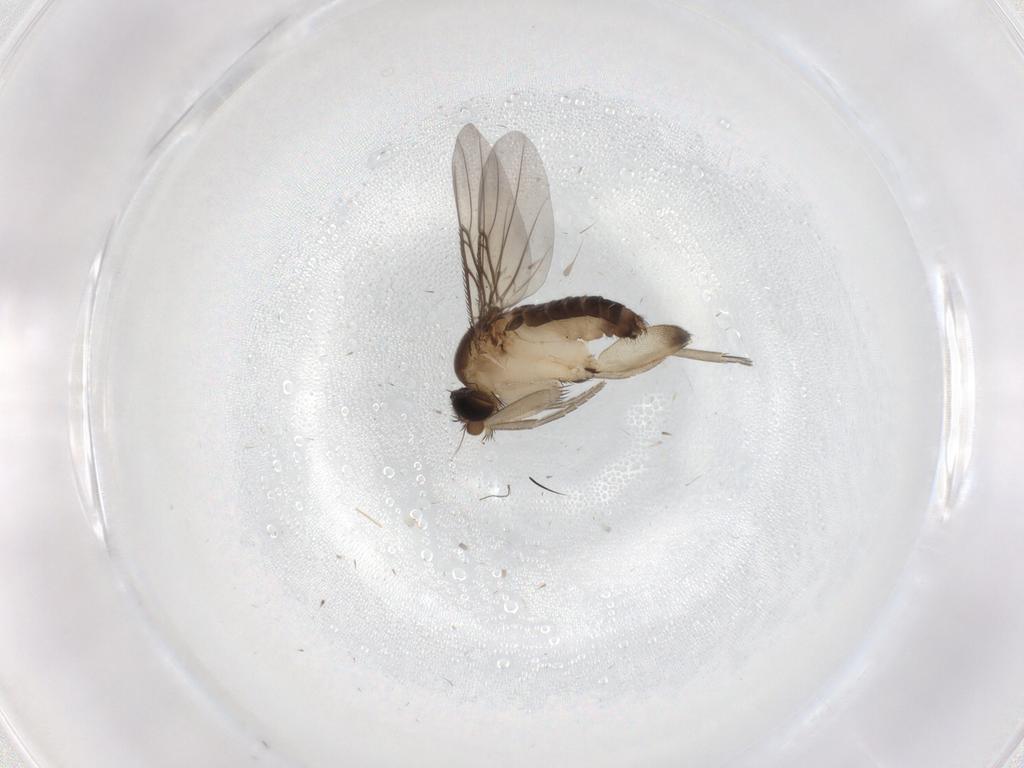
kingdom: Animalia
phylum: Arthropoda
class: Insecta
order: Diptera
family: Phoridae
